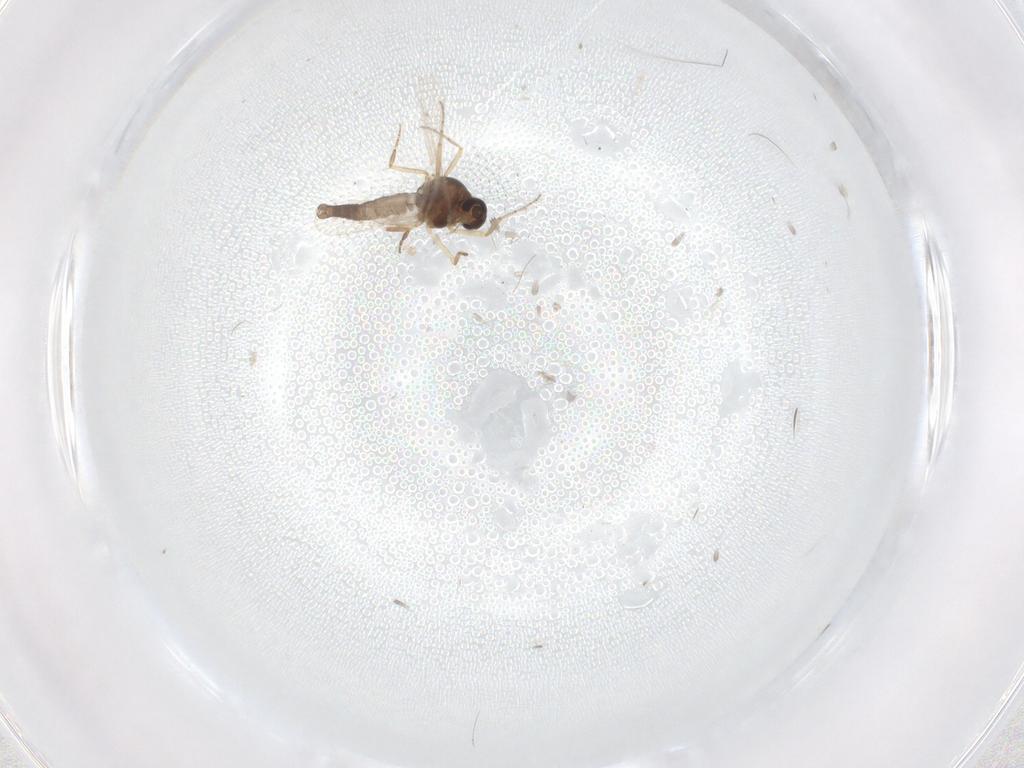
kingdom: Animalia
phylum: Arthropoda
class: Insecta
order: Diptera
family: Ceratopogonidae
